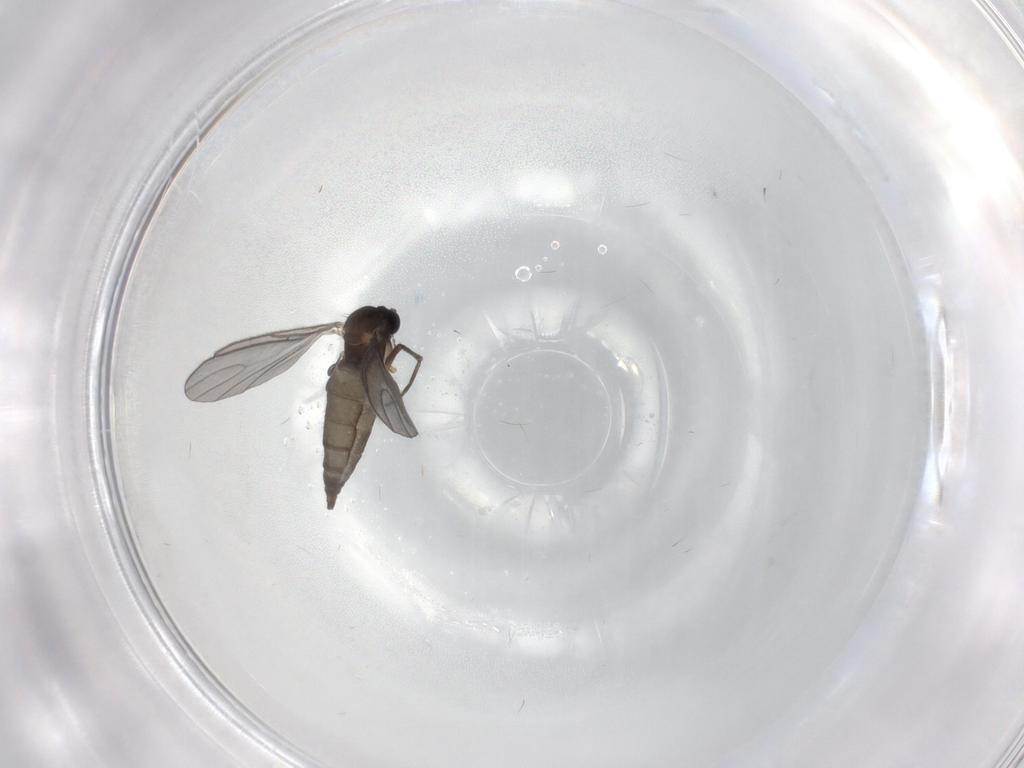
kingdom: Animalia
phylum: Arthropoda
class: Insecta
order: Diptera
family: Sciaridae
